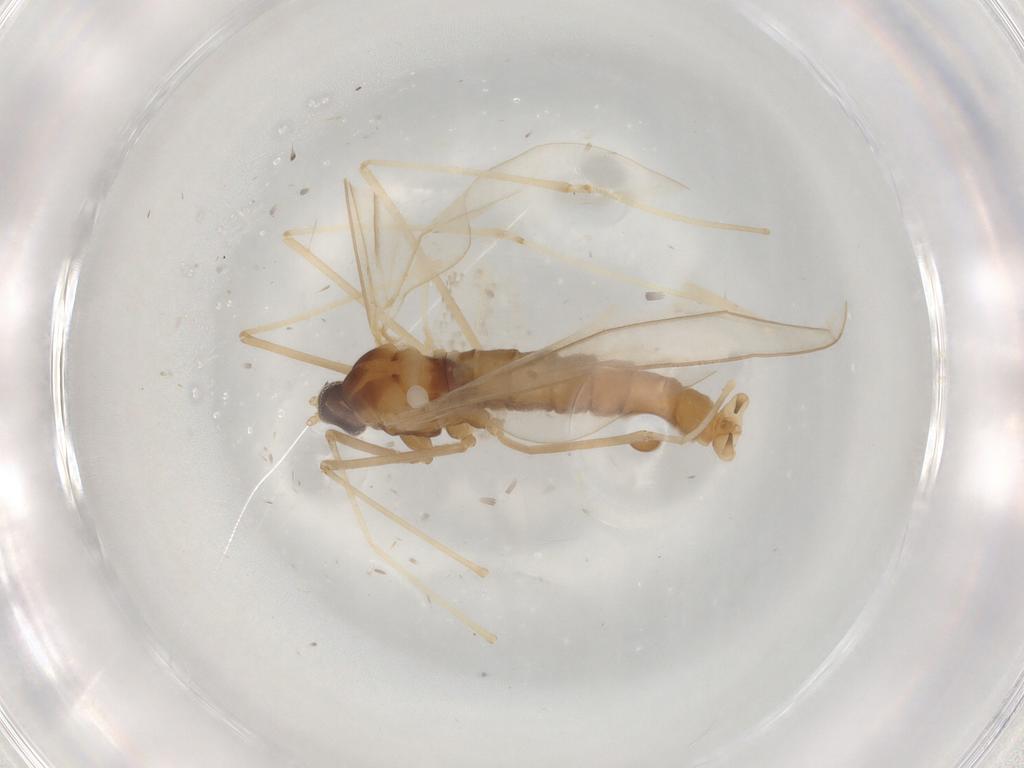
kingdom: Animalia
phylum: Arthropoda
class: Insecta
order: Diptera
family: Cecidomyiidae
